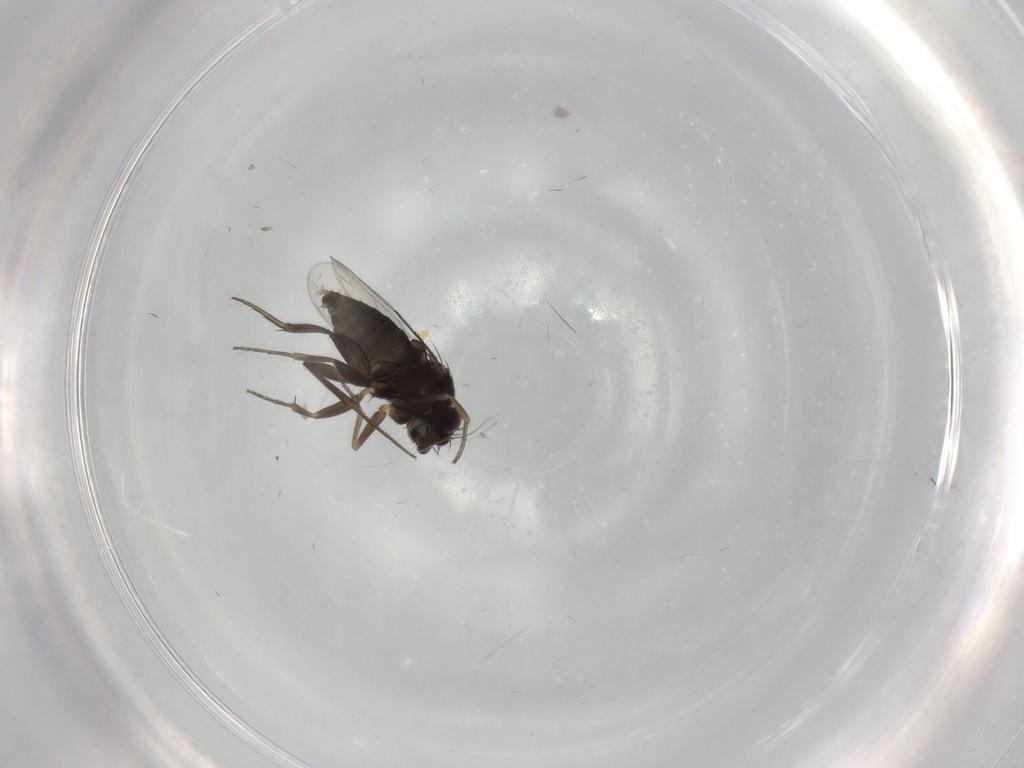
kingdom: Animalia
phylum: Arthropoda
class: Insecta
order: Diptera
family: Phoridae
